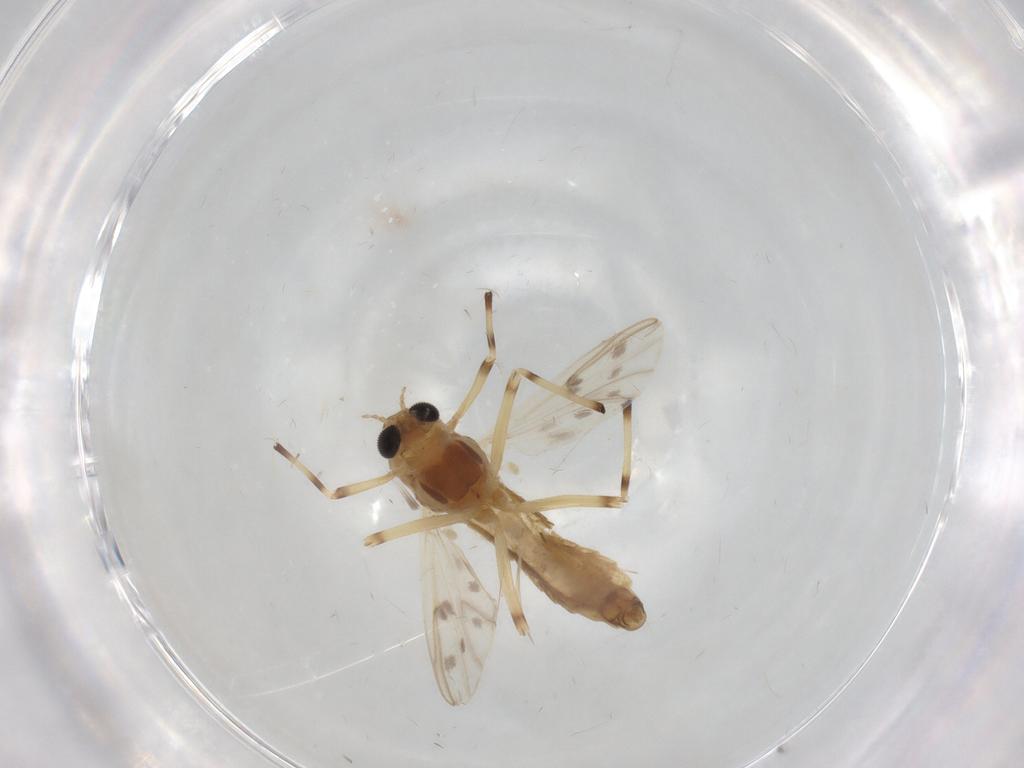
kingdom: Animalia
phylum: Arthropoda
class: Insecta
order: Diptera
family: Chironomidae
